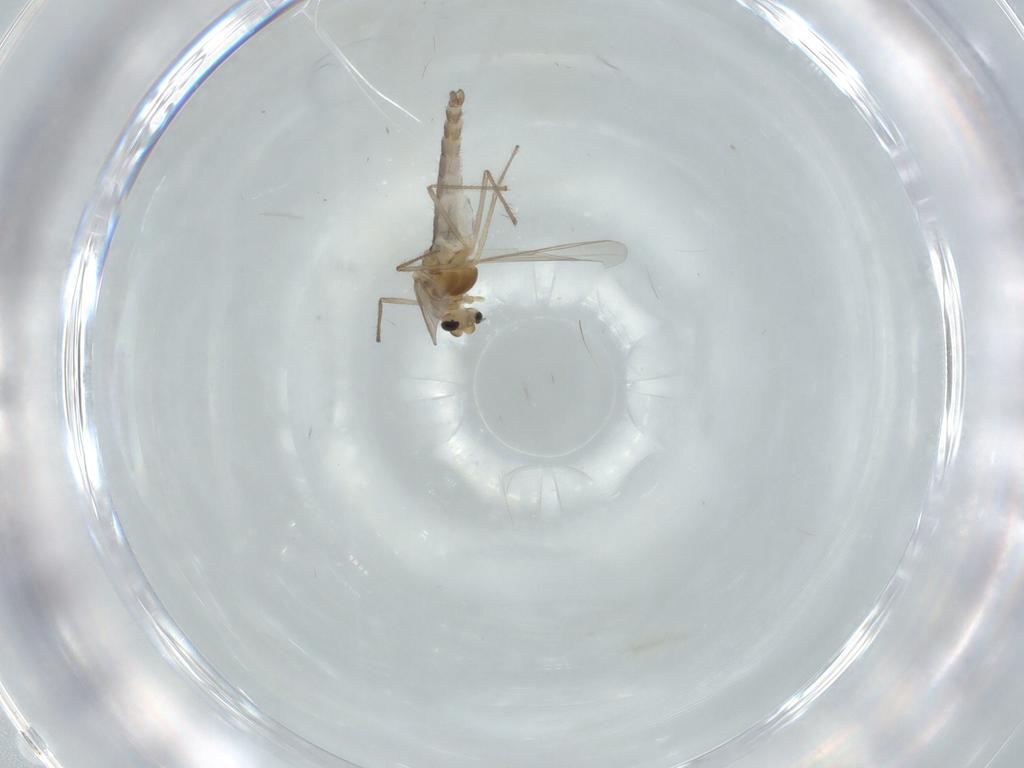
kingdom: Animalia
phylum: Arthropoda
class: Insecta
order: Diptera
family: Chironomidae
